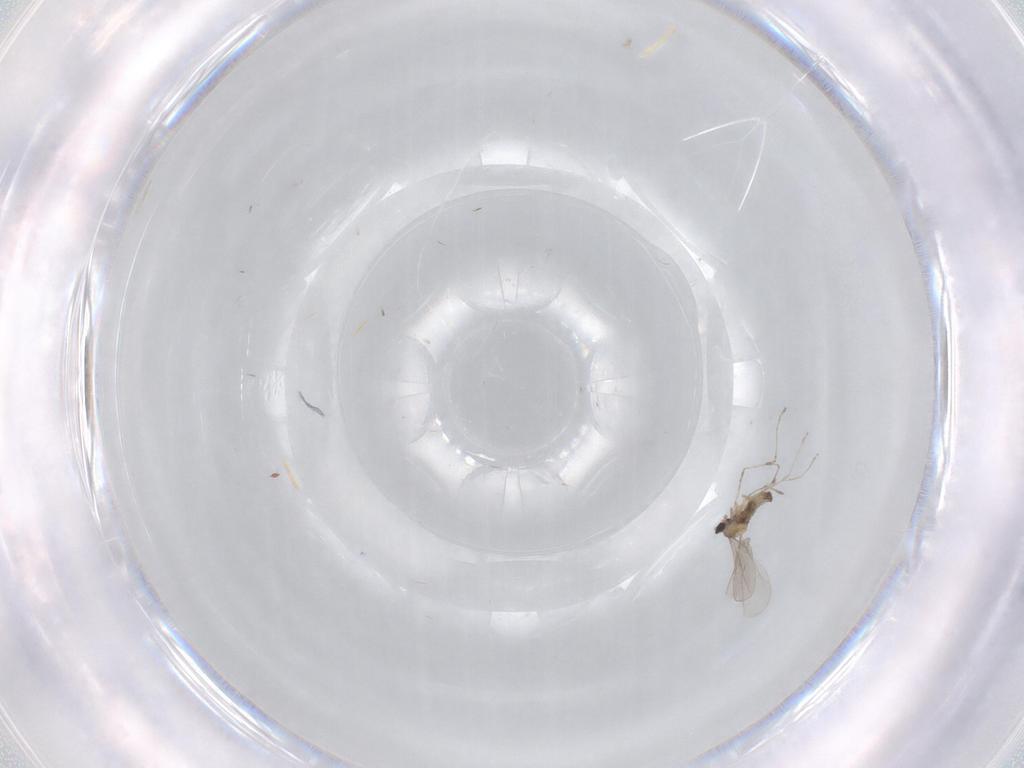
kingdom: Animalia
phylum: Arthropoda
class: Insecta
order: Diptera
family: Cecidomyiidae
